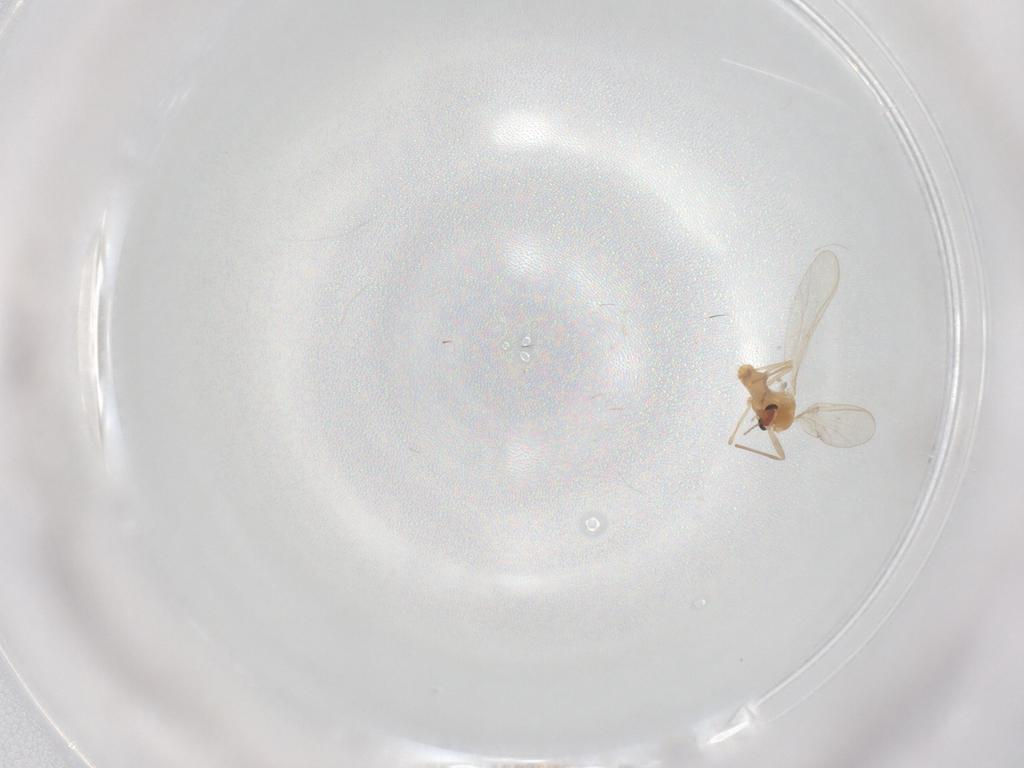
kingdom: Animalia
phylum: Arthropoda
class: Insecta
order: Diptera
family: Chironomidae
